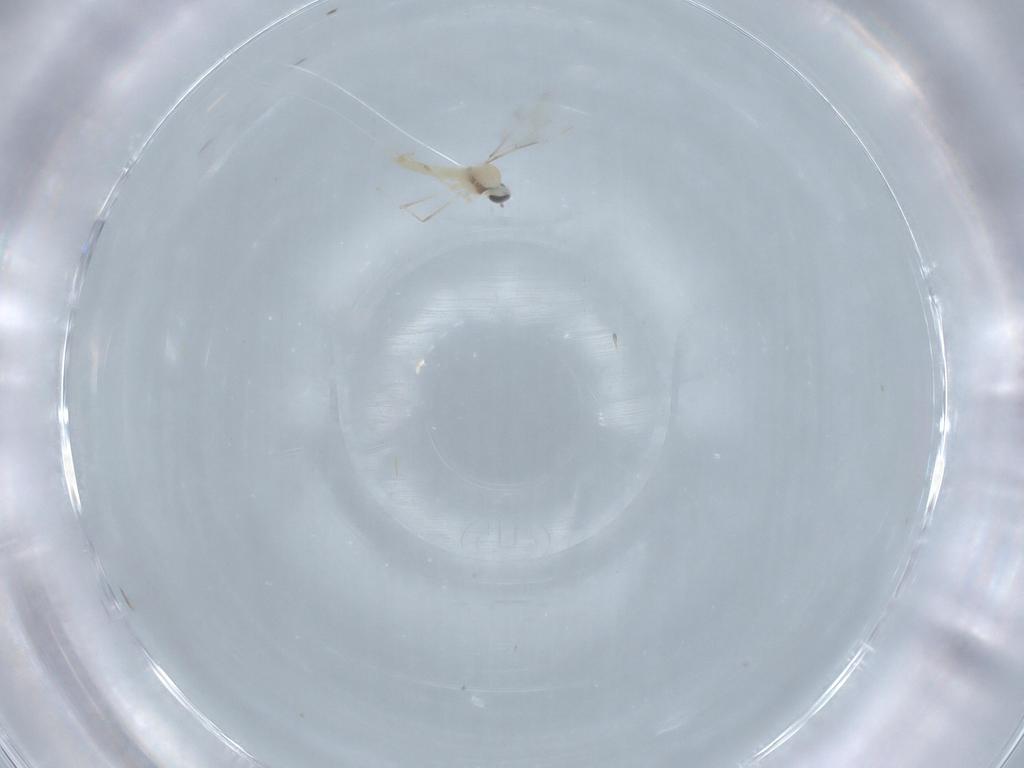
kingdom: Animalia
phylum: Arthropoda
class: Insecta
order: Diptera
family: Cecidomyiidae
